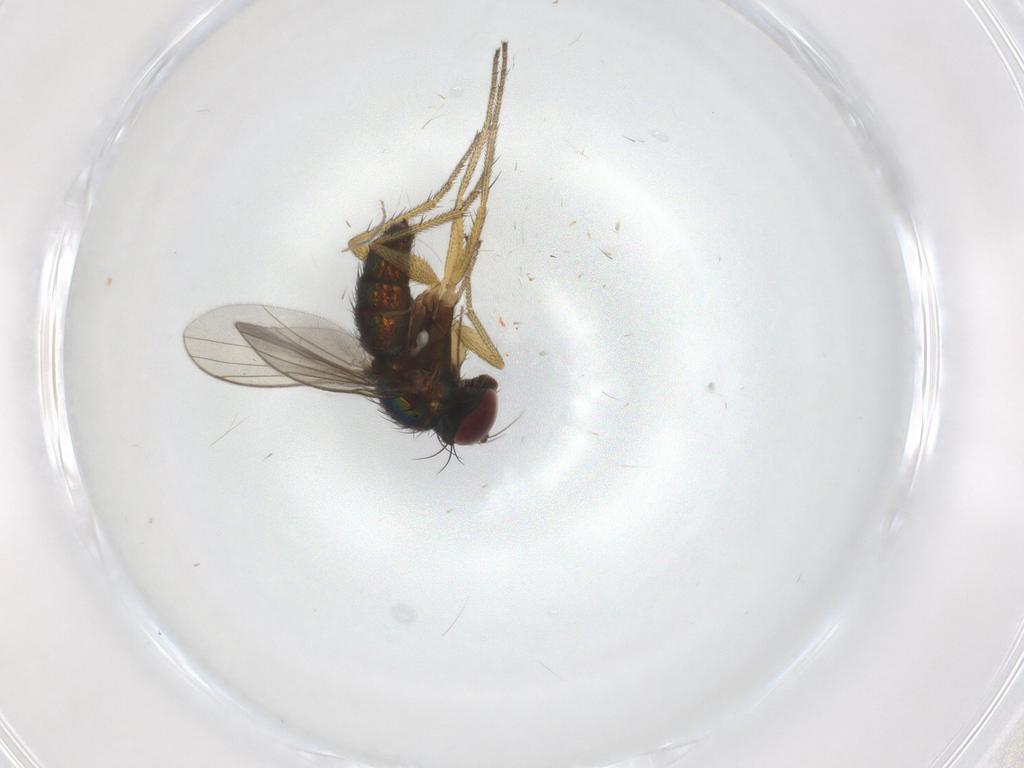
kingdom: Animalia
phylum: Arthropoda
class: Insecta
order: Diptera
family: Chironomidae
